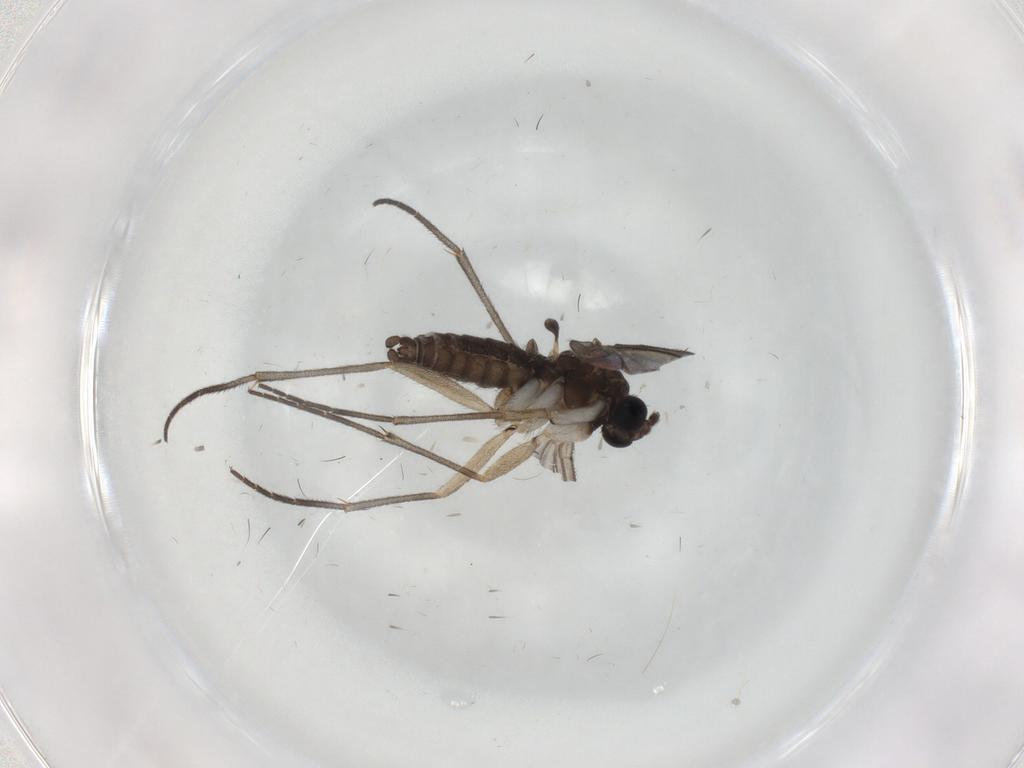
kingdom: Animalia
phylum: Arthropoda
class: Insecta
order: Diptera
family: Sciaridae
